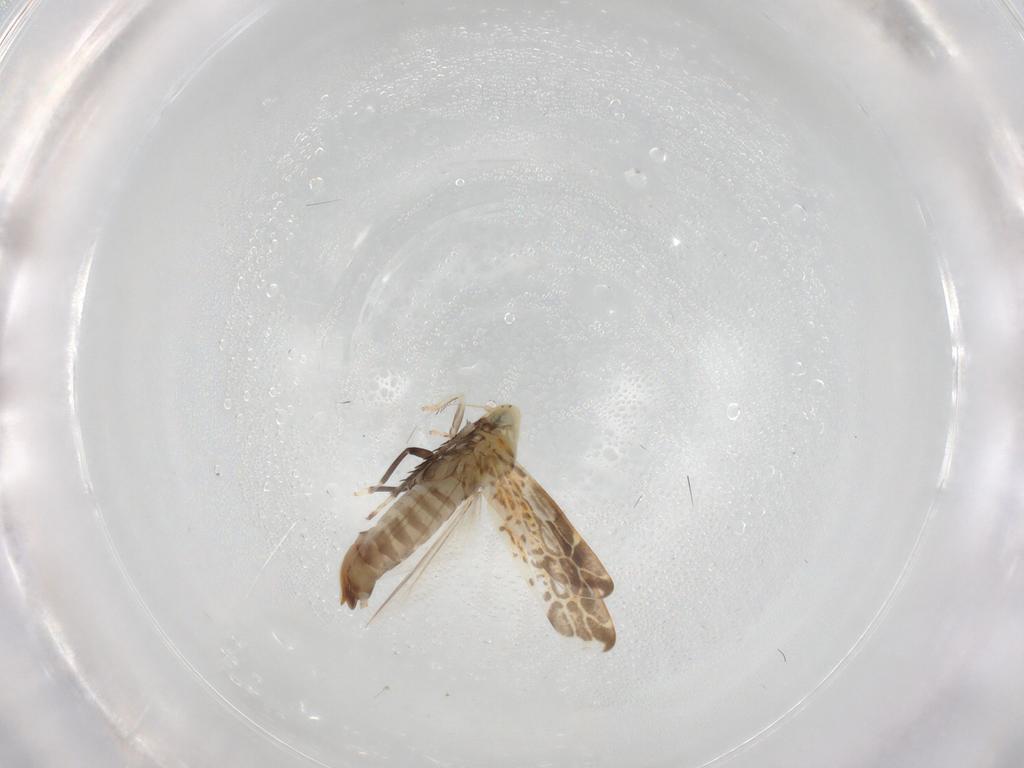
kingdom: Animalia
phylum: Arthropoda
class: Insecta
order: Hemiptera
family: Cicadellidae
